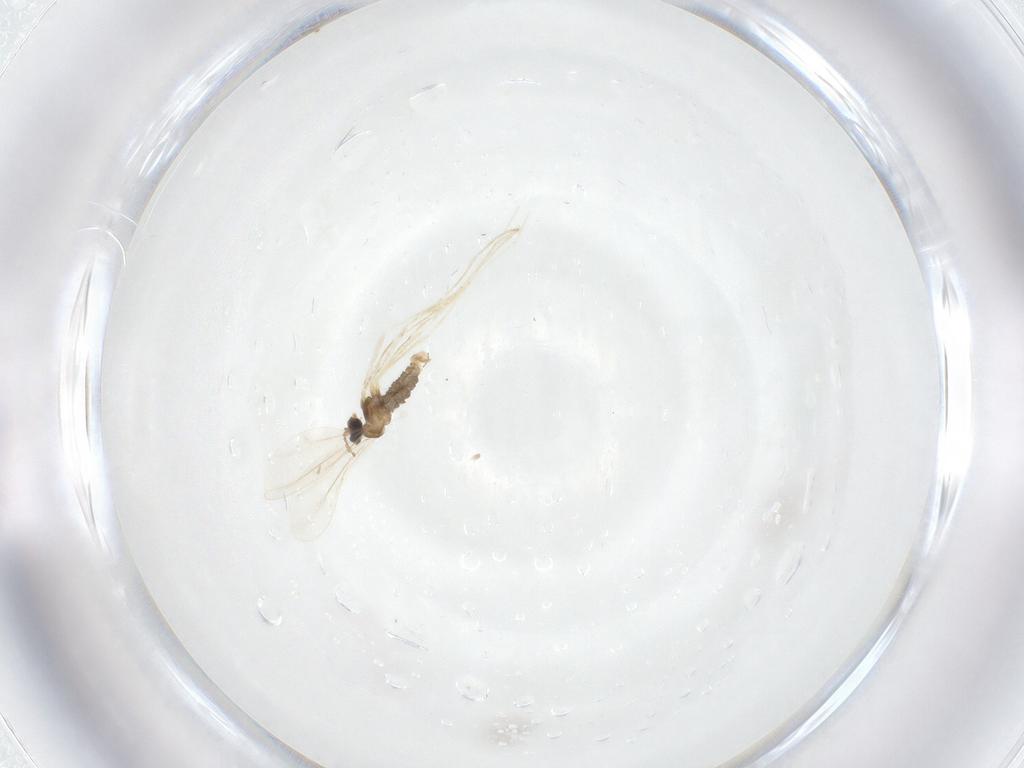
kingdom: Animalia
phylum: Arthropoda
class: Insecta
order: Diptera
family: Cecidomyiidae
